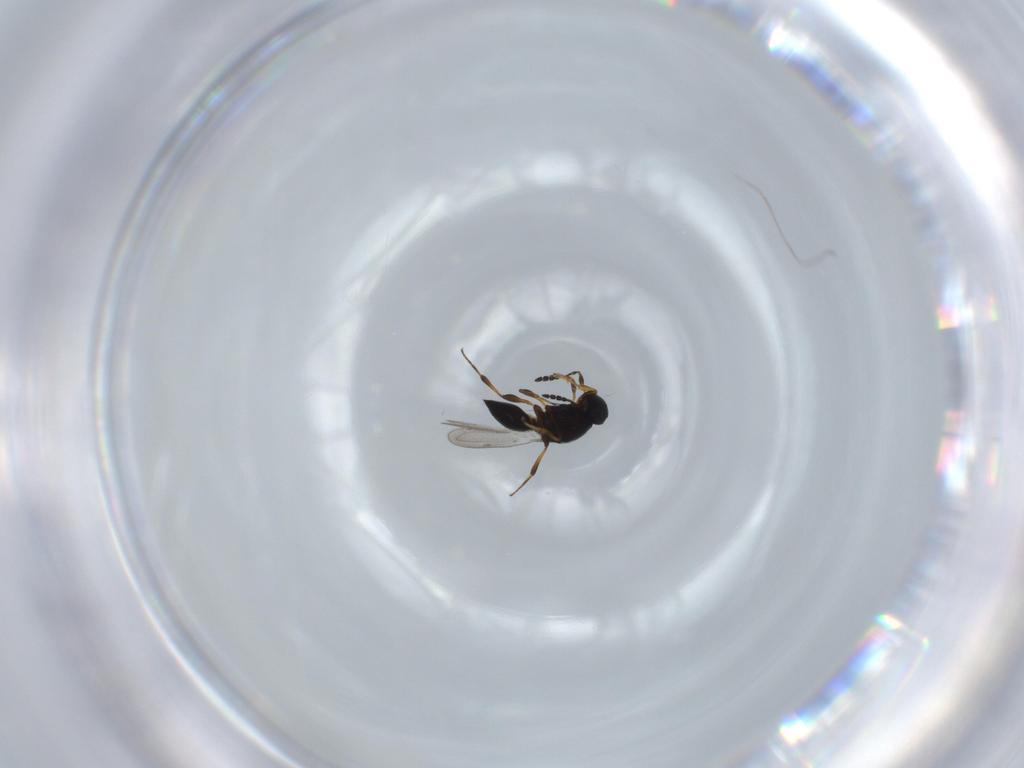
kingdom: Animalia
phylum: Arthropoda
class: Insecta
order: Hymenoptera
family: Platygastridae
